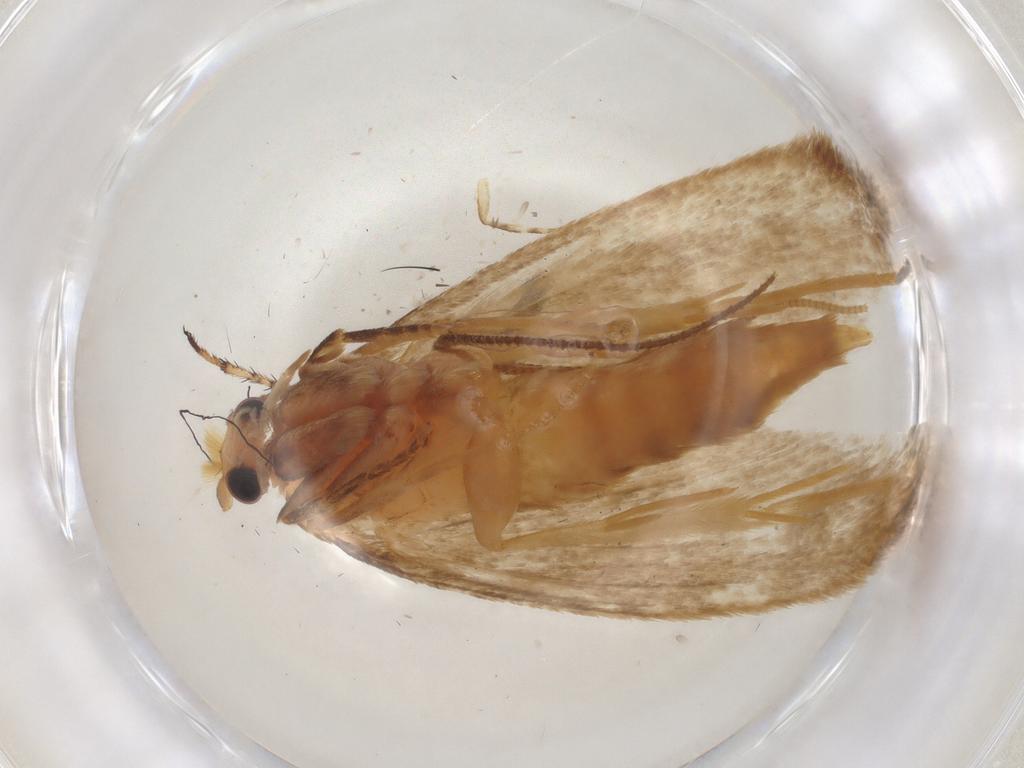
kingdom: Animalia
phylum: Arthropoda
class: Insecta
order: Lepidoptera
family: Tineidae
